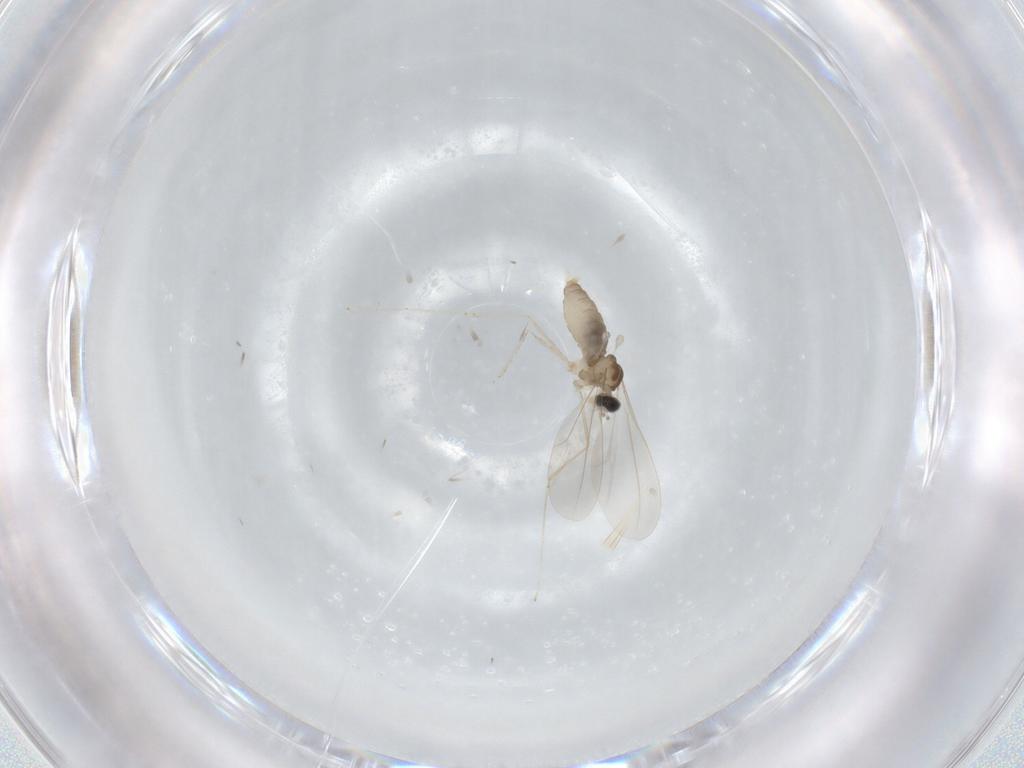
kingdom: Animalia
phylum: Arthropoda
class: Insecta
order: Diptera
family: Cecidomyiidae
